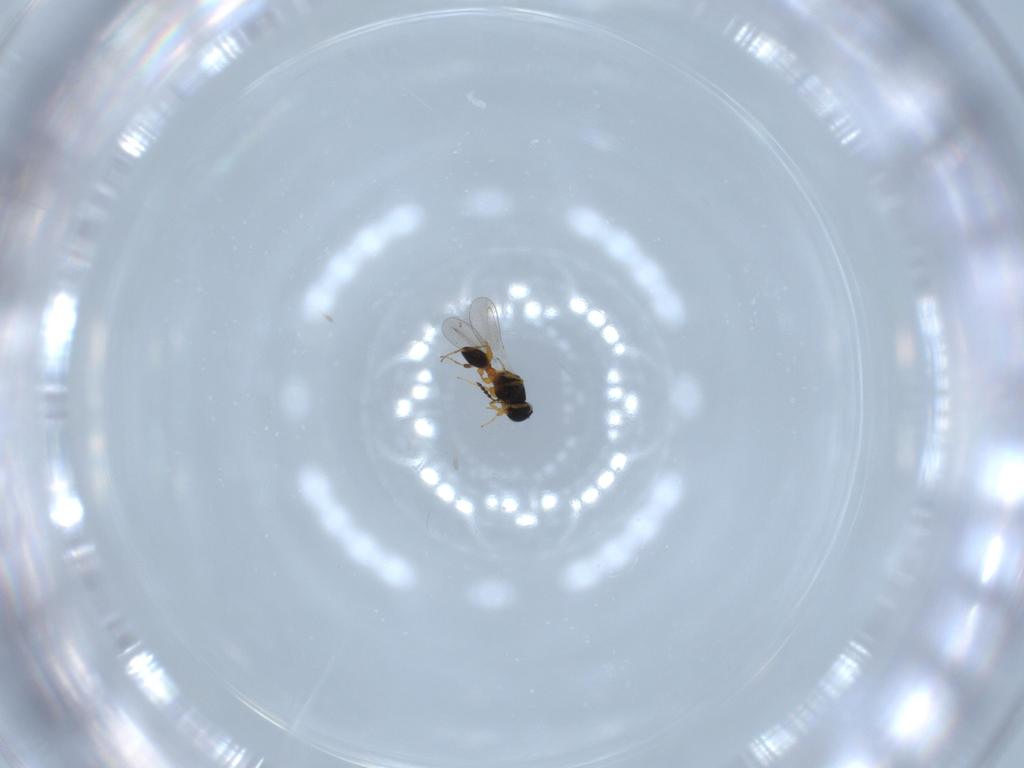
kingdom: Animalia
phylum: Arthropoda
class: Insecta
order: Hymenoptera
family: Platygastridae
